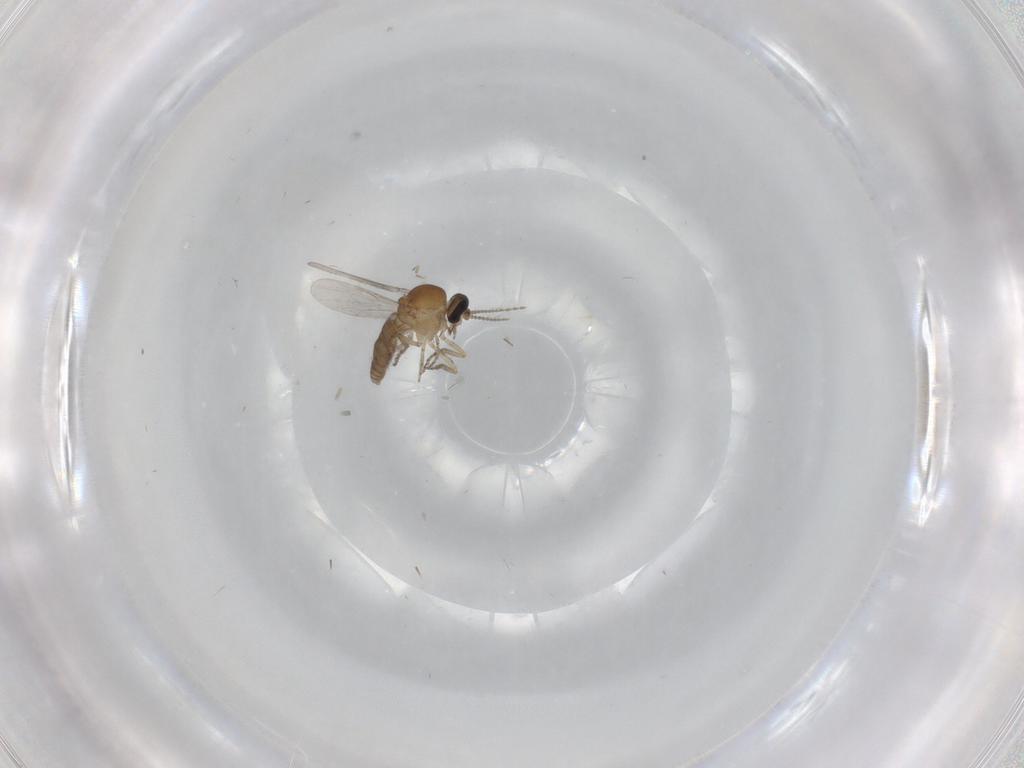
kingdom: Animalia
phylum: Arthropoda
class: Insecta
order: Diptera
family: Ceratopogonidae
